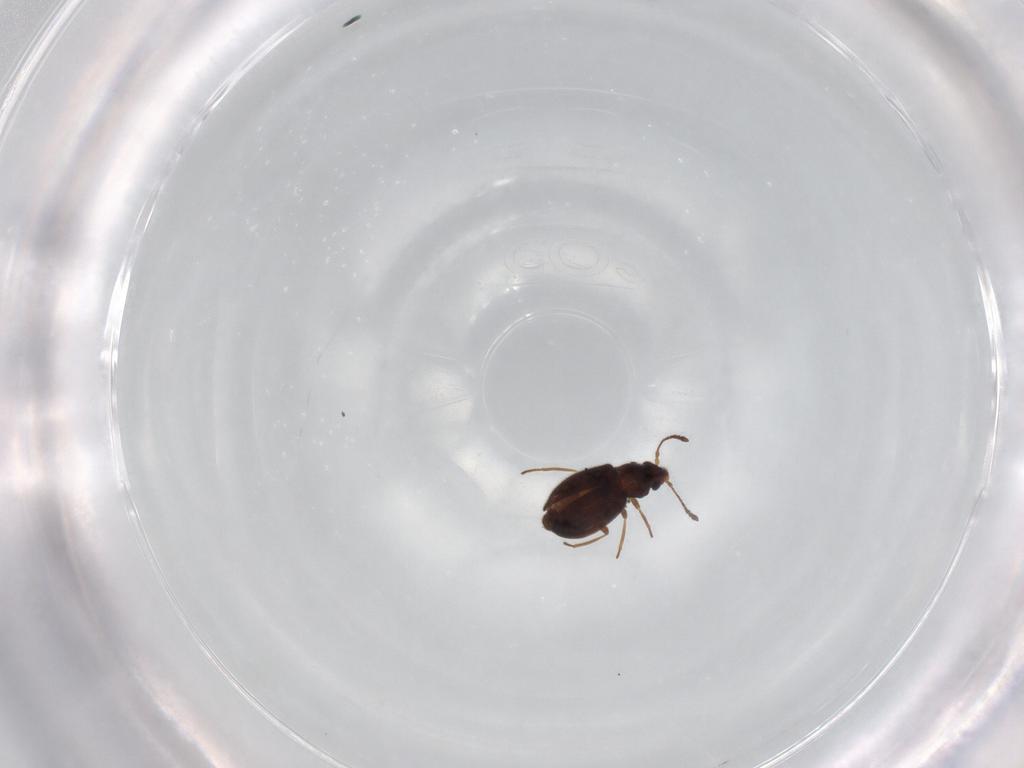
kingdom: Animalia
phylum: Arthropoda
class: Insecta
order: Coleoptera
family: Cryptophagidae
